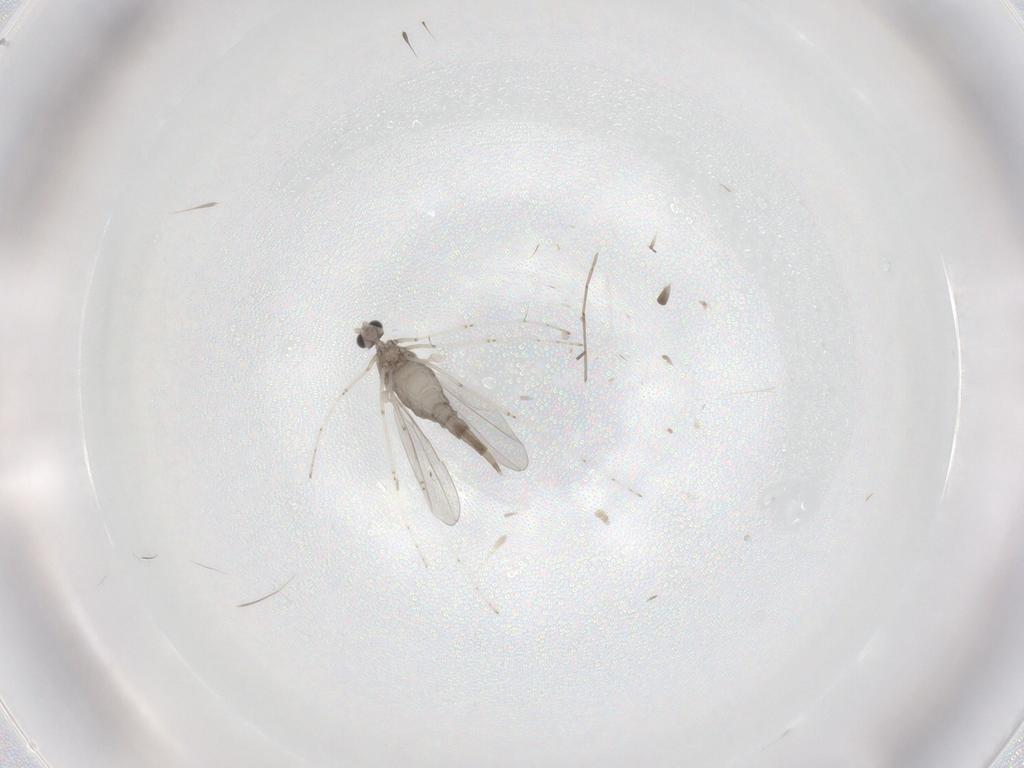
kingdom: Animalia
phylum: Arthropoda
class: Insecta
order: Diptera
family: Cecidomyiidae
